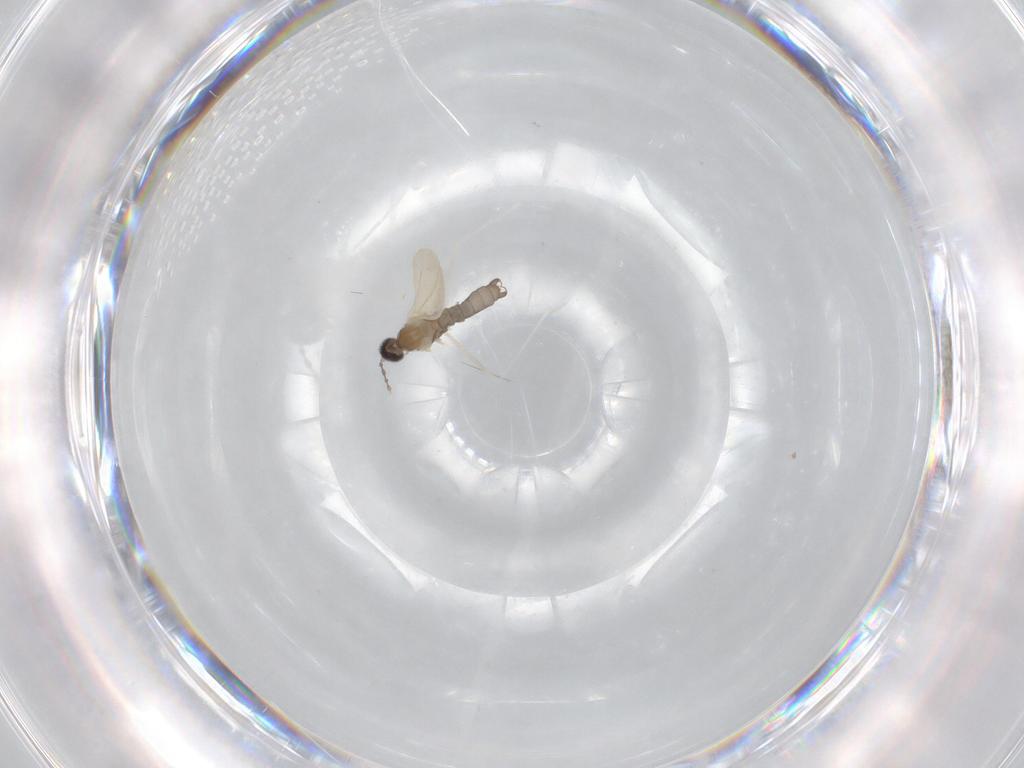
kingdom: Animalia
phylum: Arthropoda
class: Insecta
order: Diptera
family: Cecidomyiidae
